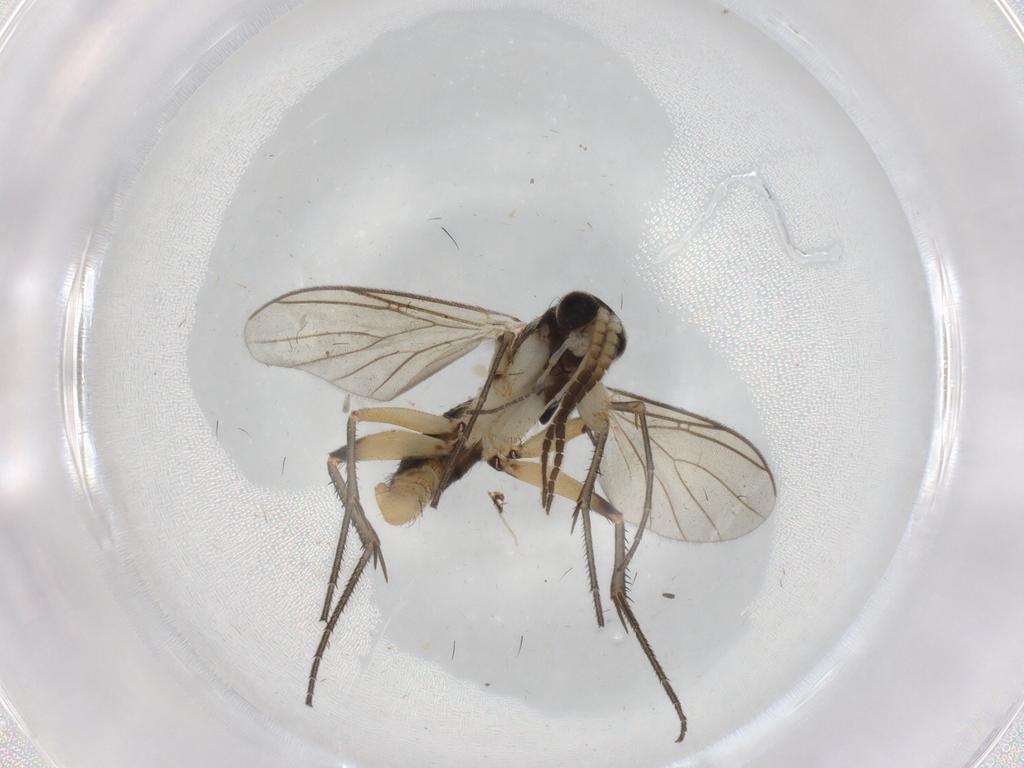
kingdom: Animalia
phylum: Arthropoda
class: Insecta
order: Diptera
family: Mycetophilidae
